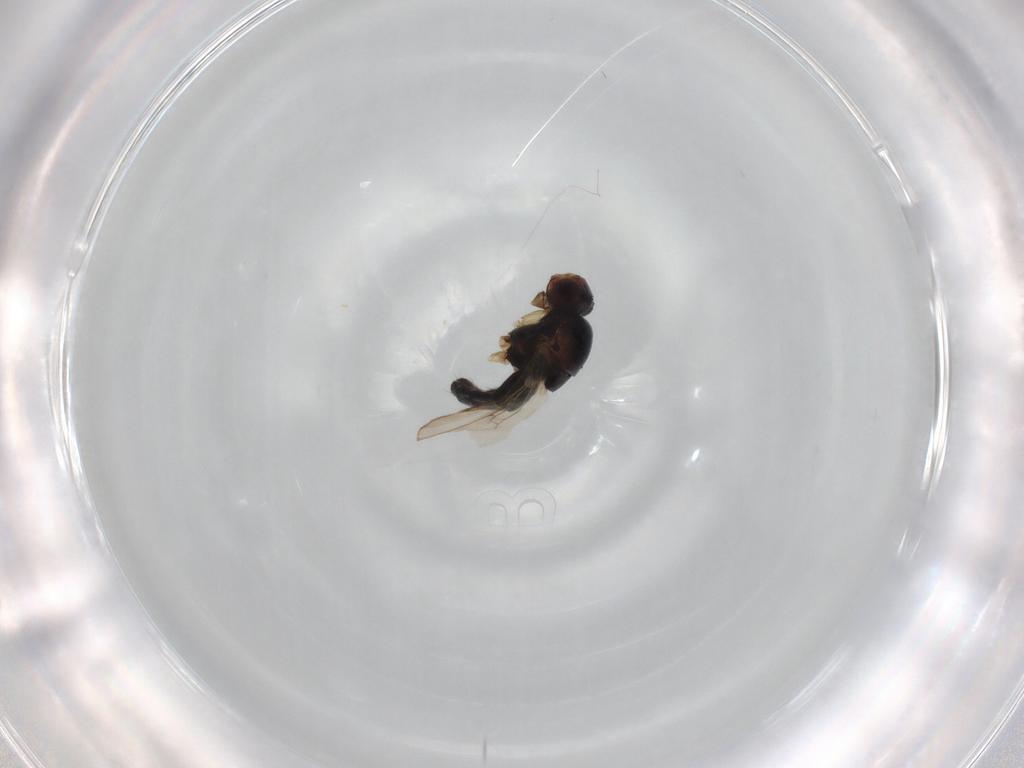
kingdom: Animalia
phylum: Arthropoda
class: Insecta
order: Diptera
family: Sphaeroceridae
